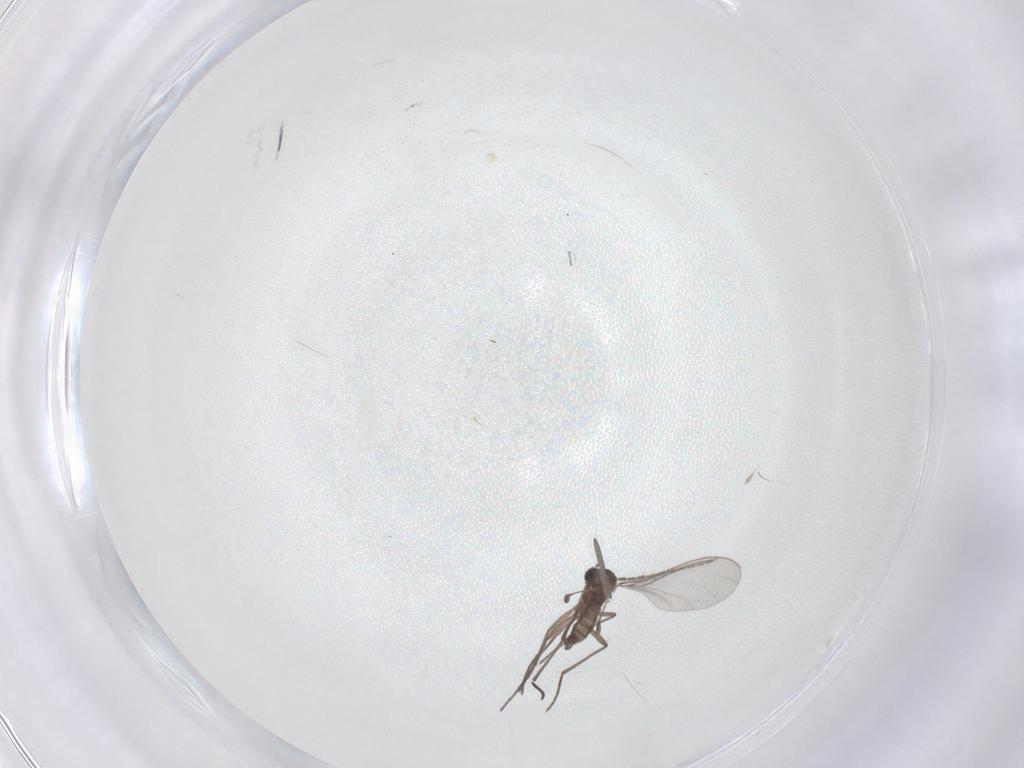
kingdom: Animalia
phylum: Arthropoda
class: Insecta
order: Diptera
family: Sciaridae
